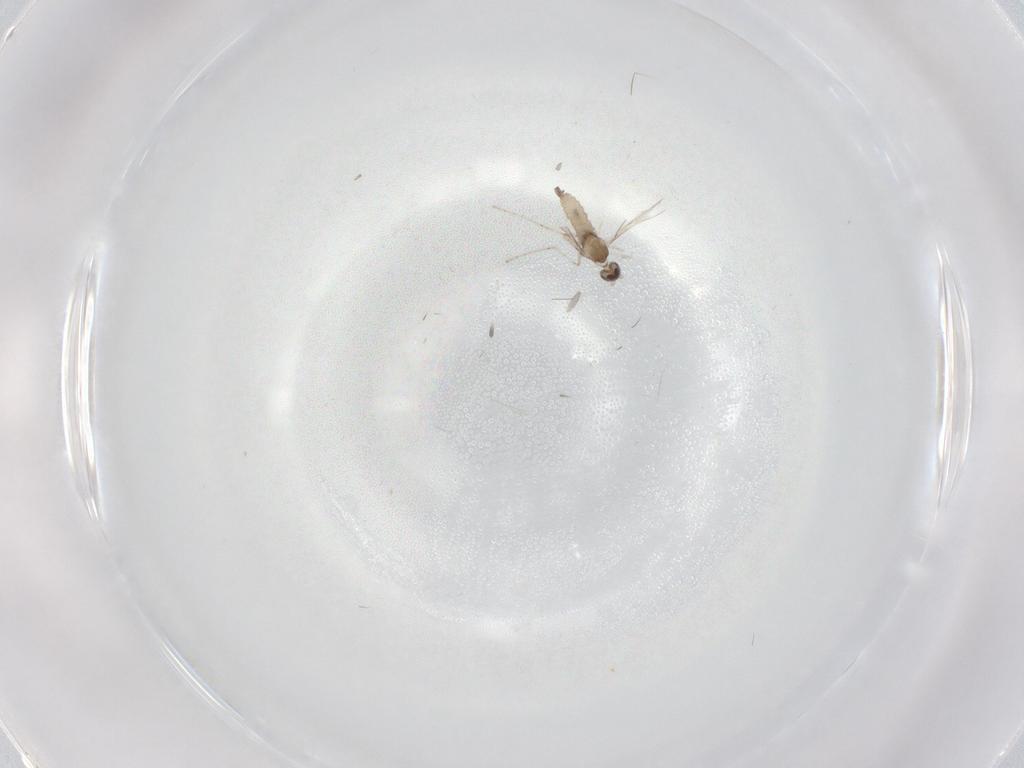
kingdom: Animalia
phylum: Arthropoda
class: Insecta
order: Diptera
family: Cecidomyiidae
